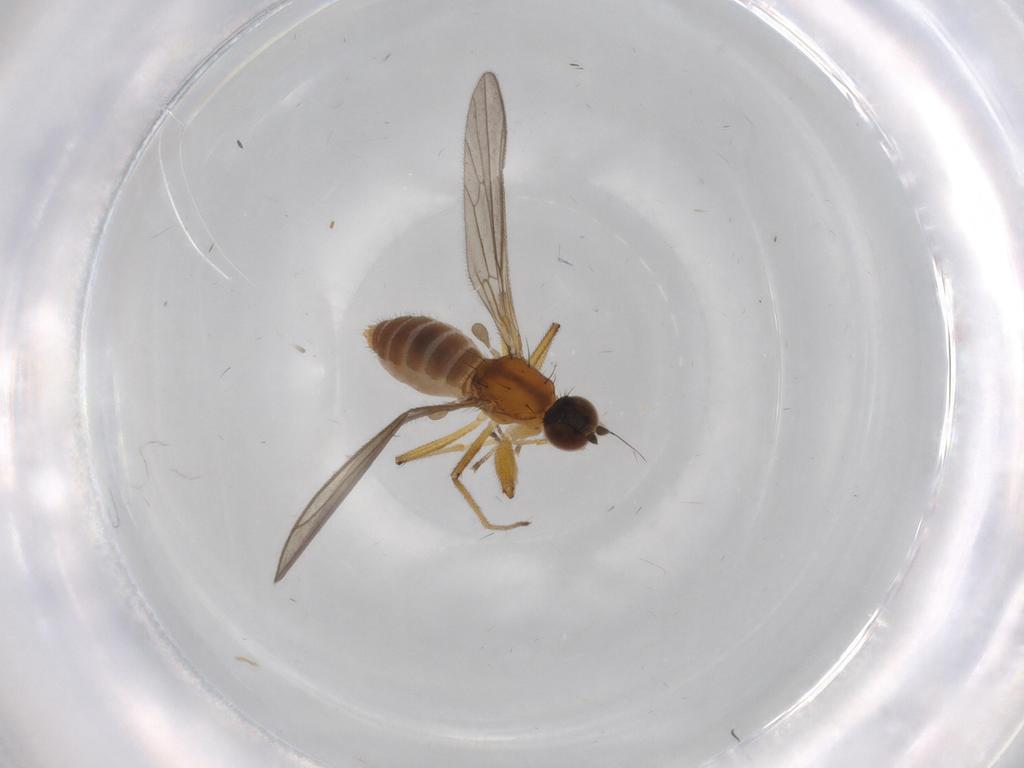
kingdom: Animalia
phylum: Arthropoda
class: Insecta
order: Diptera
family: Empididae
